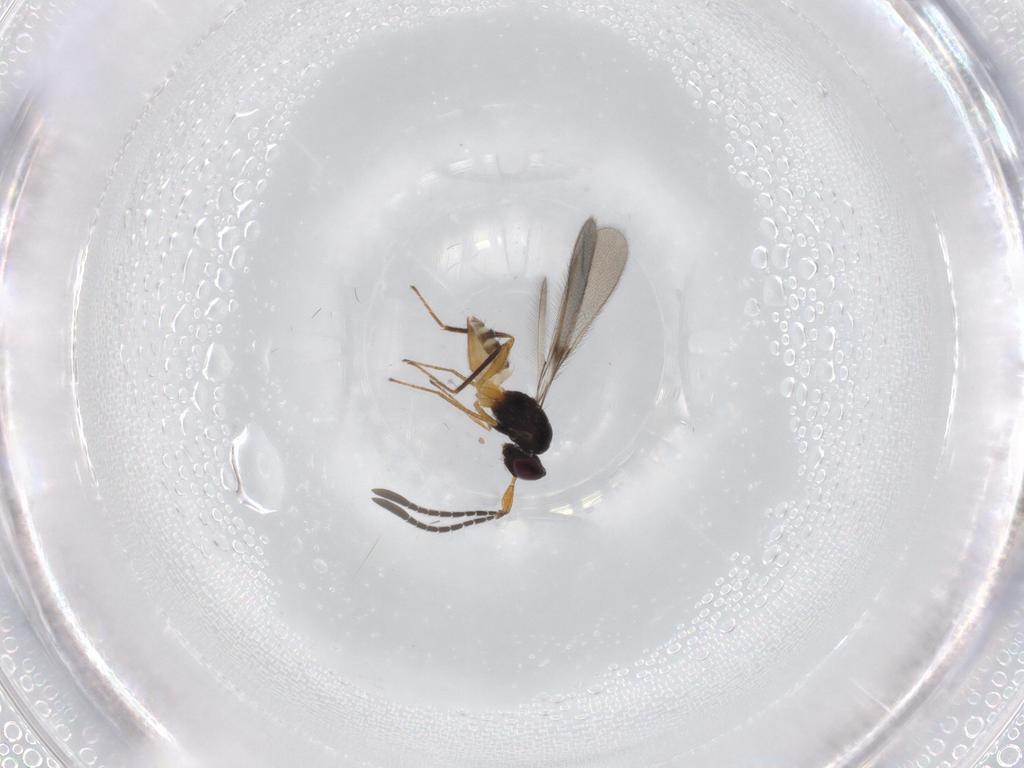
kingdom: Animalia
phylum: Arthropoda
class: Insecta
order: Hymenoptera
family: Mymaridae
